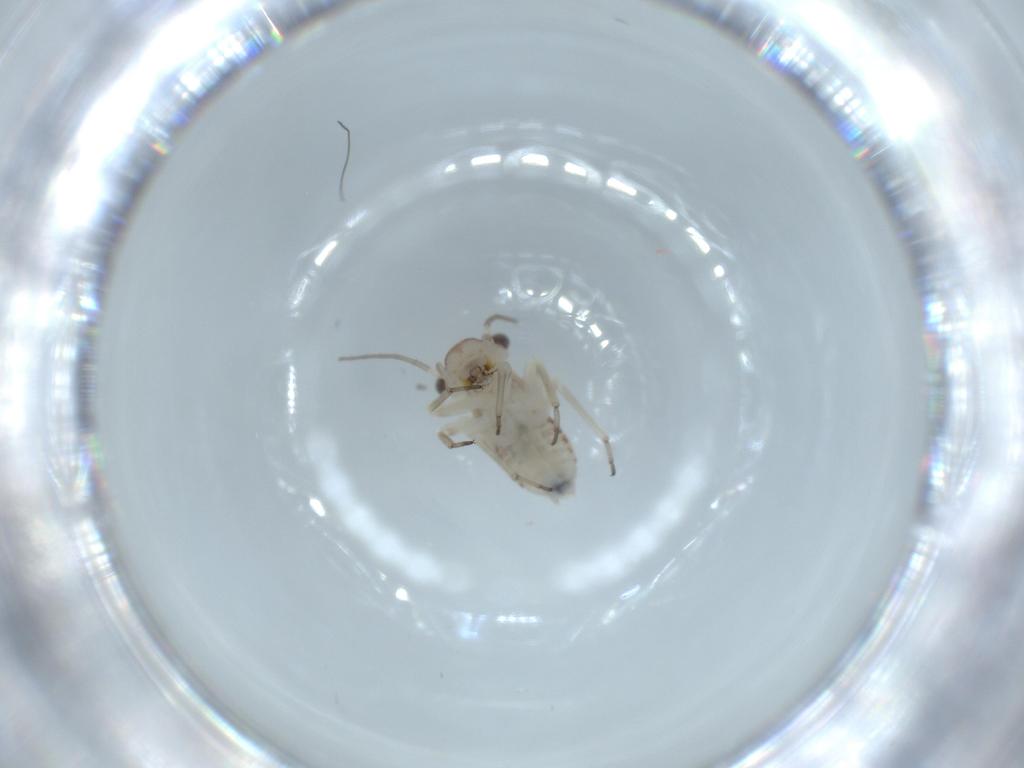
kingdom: Animalia
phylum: Arthropoda
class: Insecta
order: Psocodea
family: Psocidae
